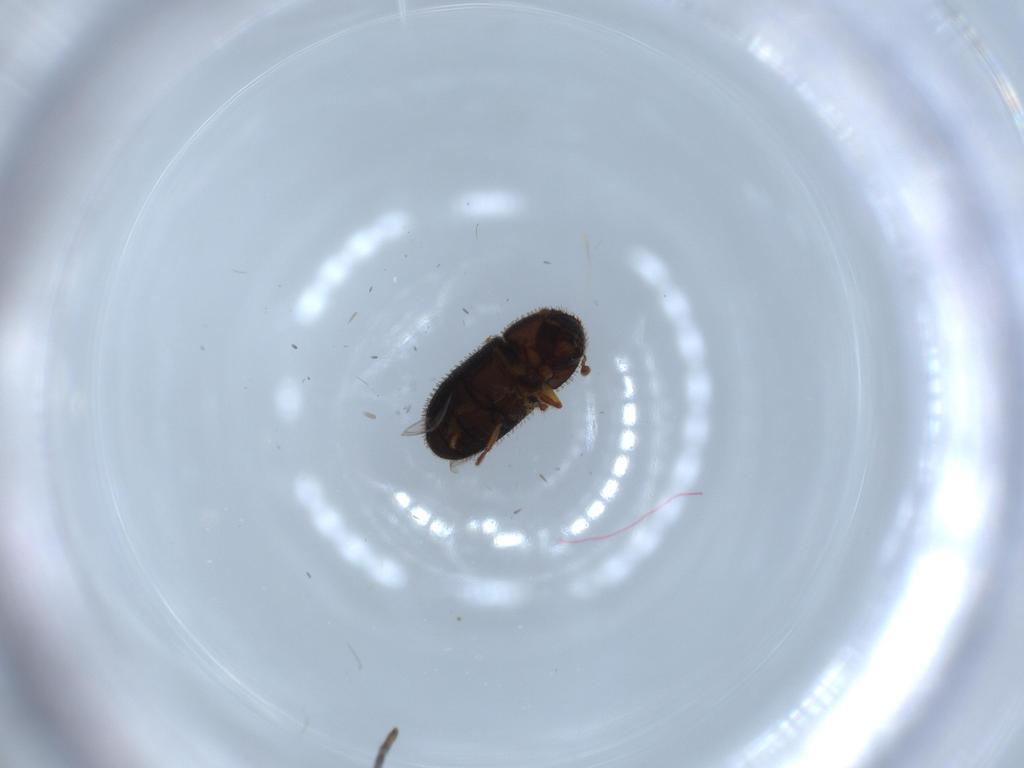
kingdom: Animalia
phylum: Arthropoda
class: Insecta
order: Coleoptera
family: Curculionidae
